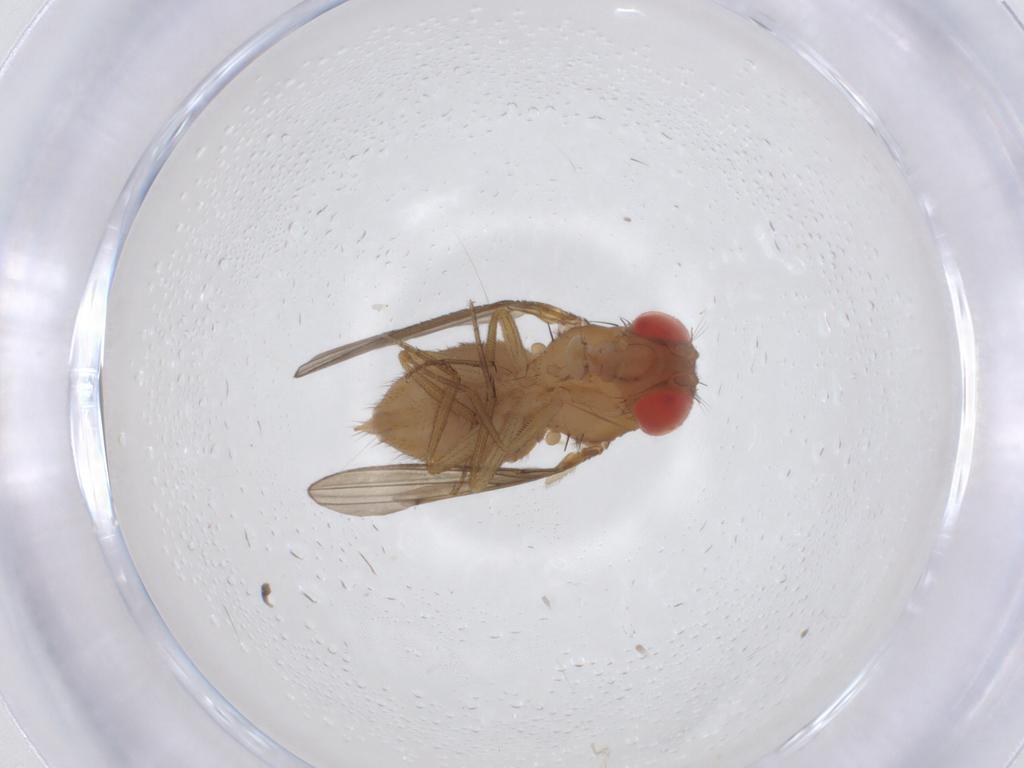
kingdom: Animalia
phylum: Arthropoda
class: Insecta
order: Diptera
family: Drosophilidae
